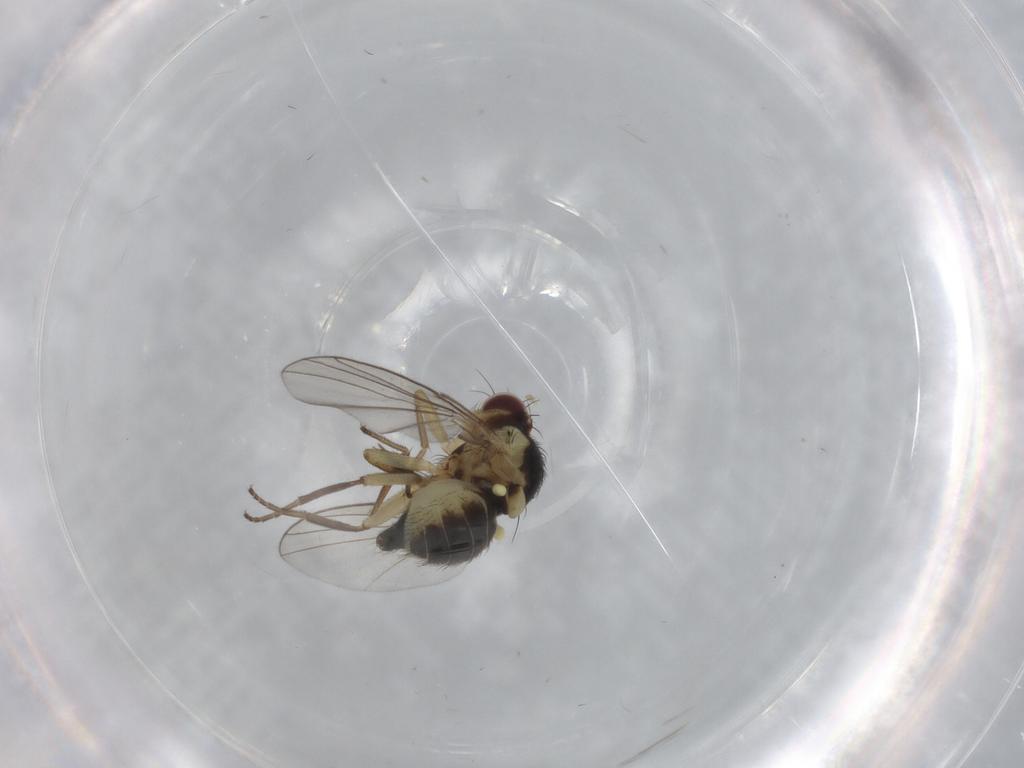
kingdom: Animalia
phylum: Arthropoda
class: Insecta
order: Diptera
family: Agromyzidae
